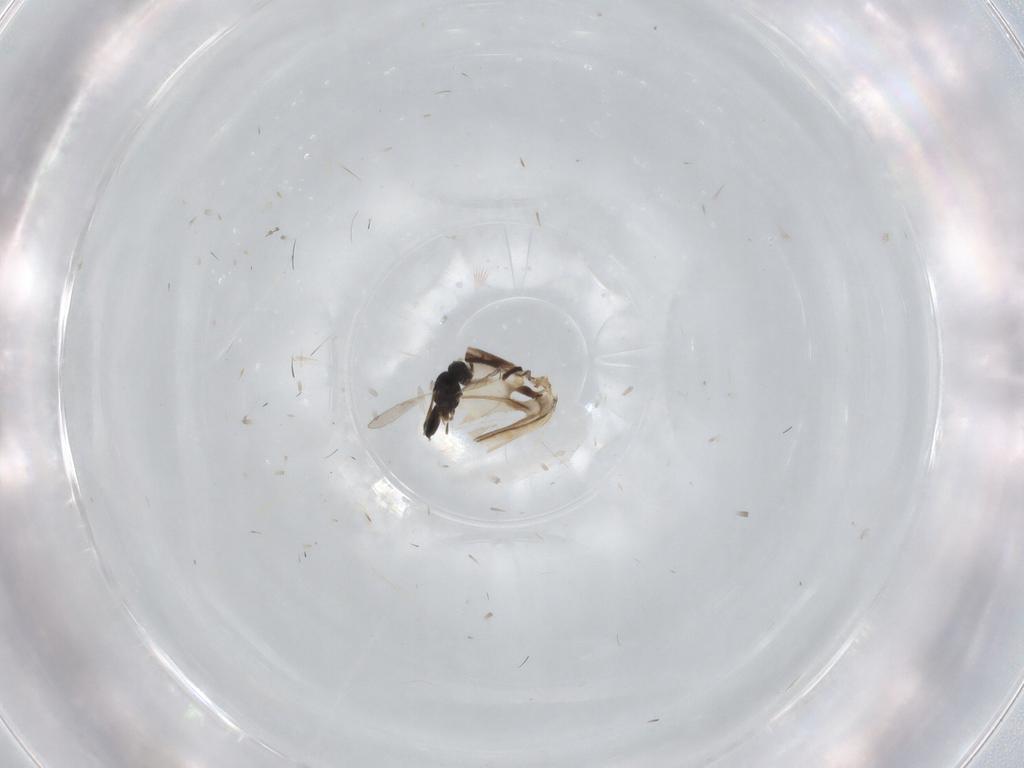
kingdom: Animalia
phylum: Arthropoda
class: Insecta
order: Hymenoptera
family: Scelionidae
